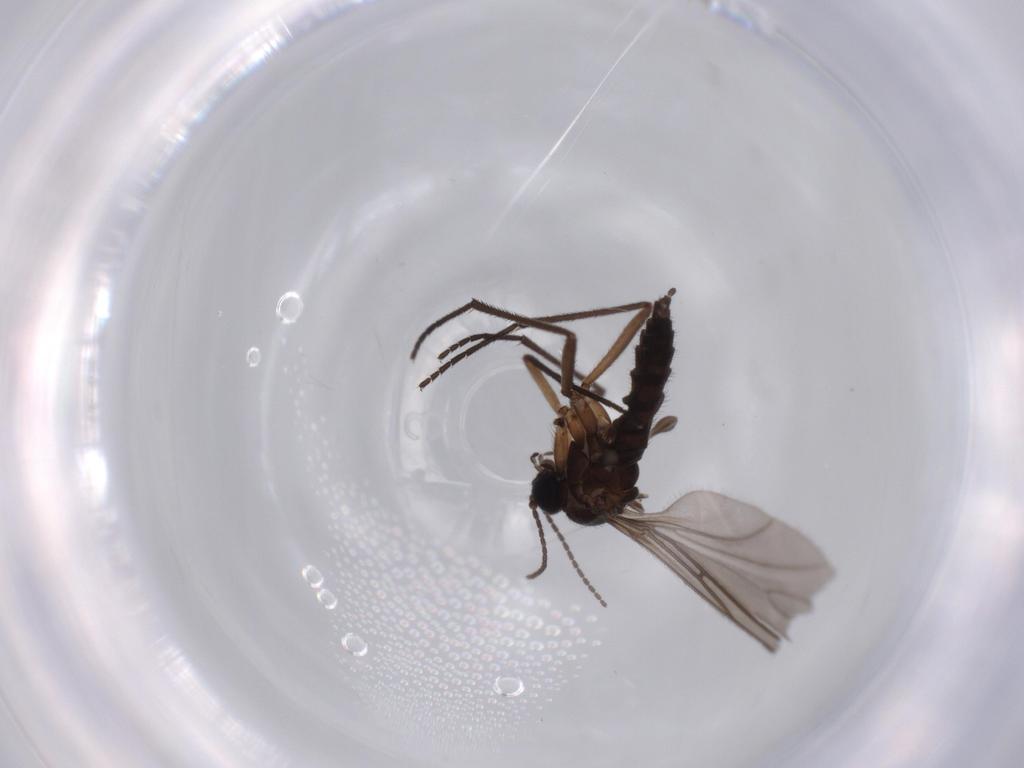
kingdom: Animalia
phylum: Arthropoda
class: Insecta
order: Diptera
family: Sciaridae
